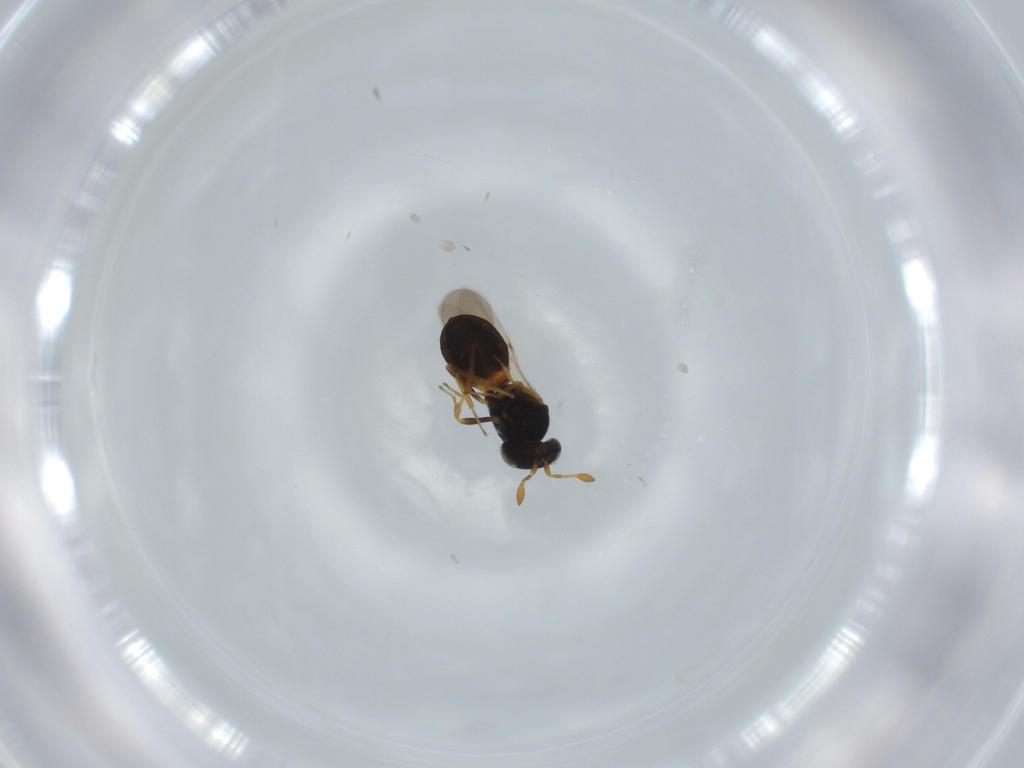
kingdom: Animalia
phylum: Arthropoda
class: Insecta
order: Hymenoptera
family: Scelionidae
